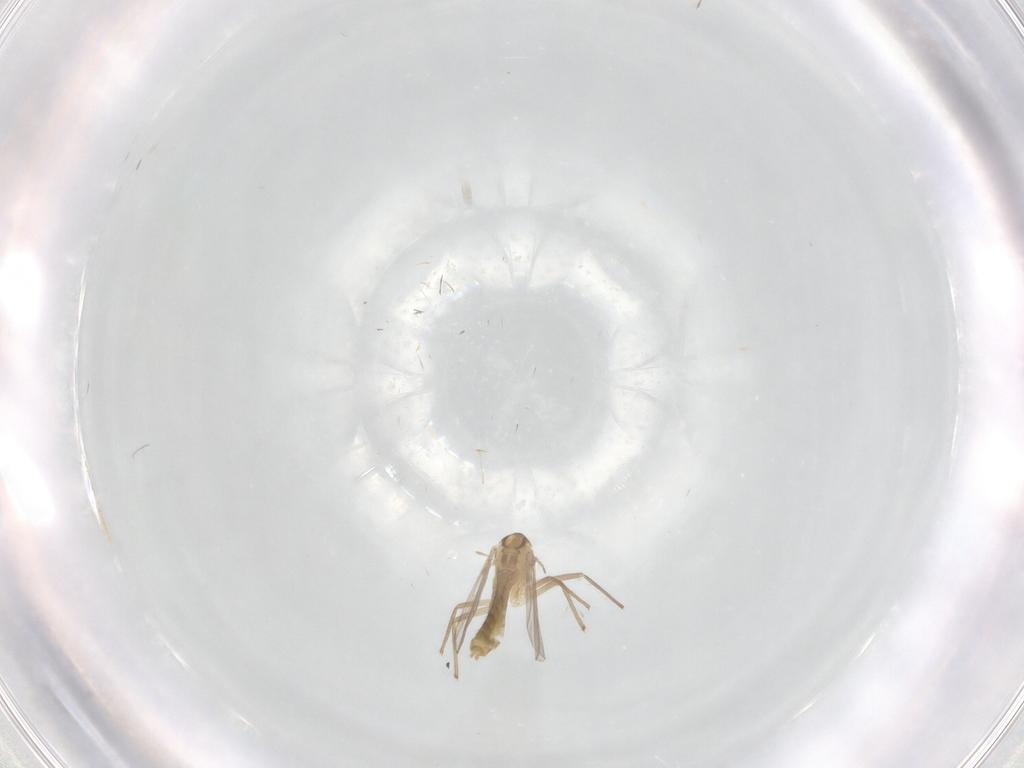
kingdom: Animalia
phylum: Arthropoda
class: Insecta
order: Diptera
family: Chironomidae
